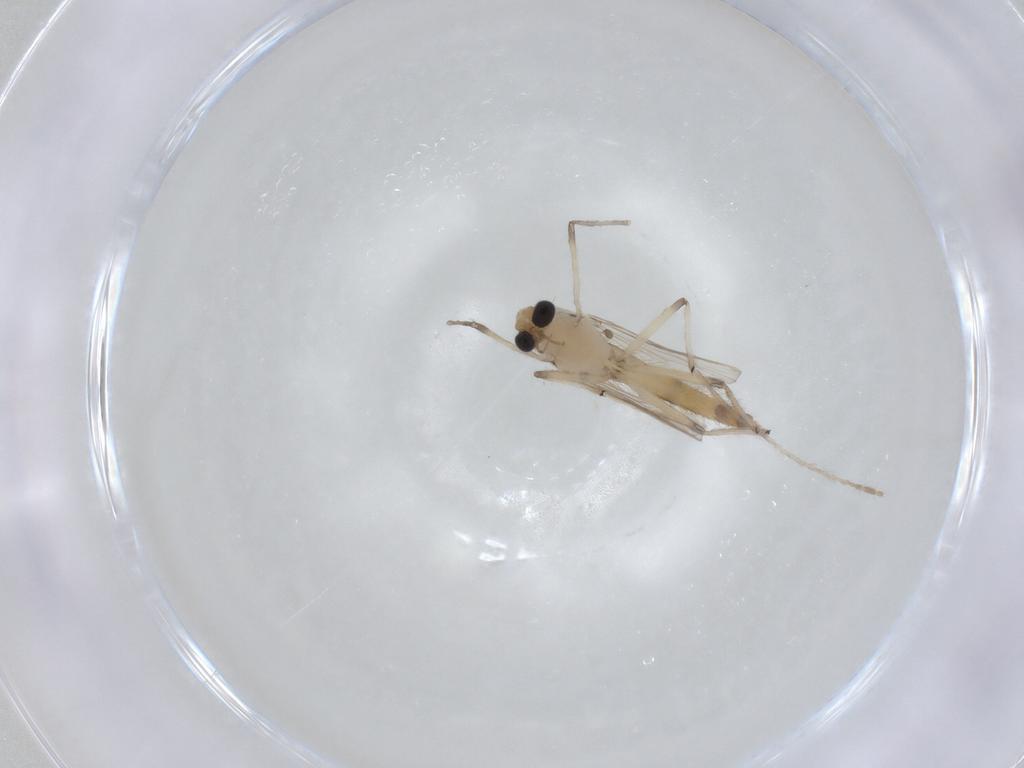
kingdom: Animalia
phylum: Arthropoda
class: Insecta
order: Diptera
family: Chironomidae
